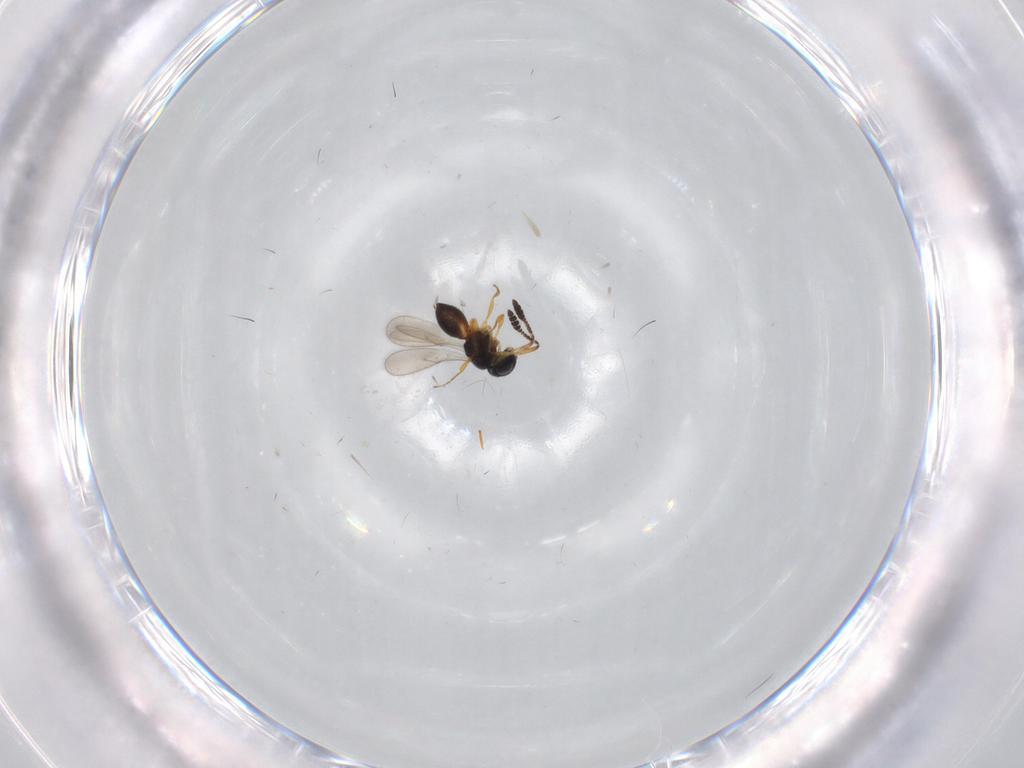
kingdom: Animalia
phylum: Arthropoda
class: Insecta
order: Hymenoptera
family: Scelionidae
